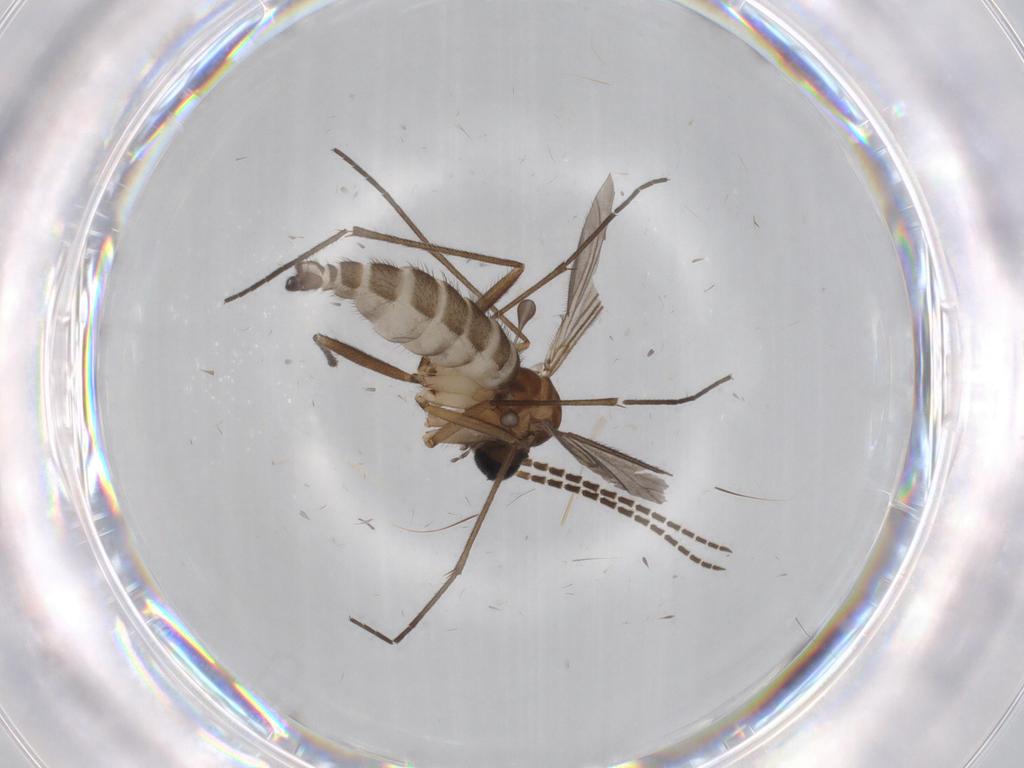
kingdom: Animalia
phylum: Arthropoda
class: Insecta
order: Diptera
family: Sciaridae
